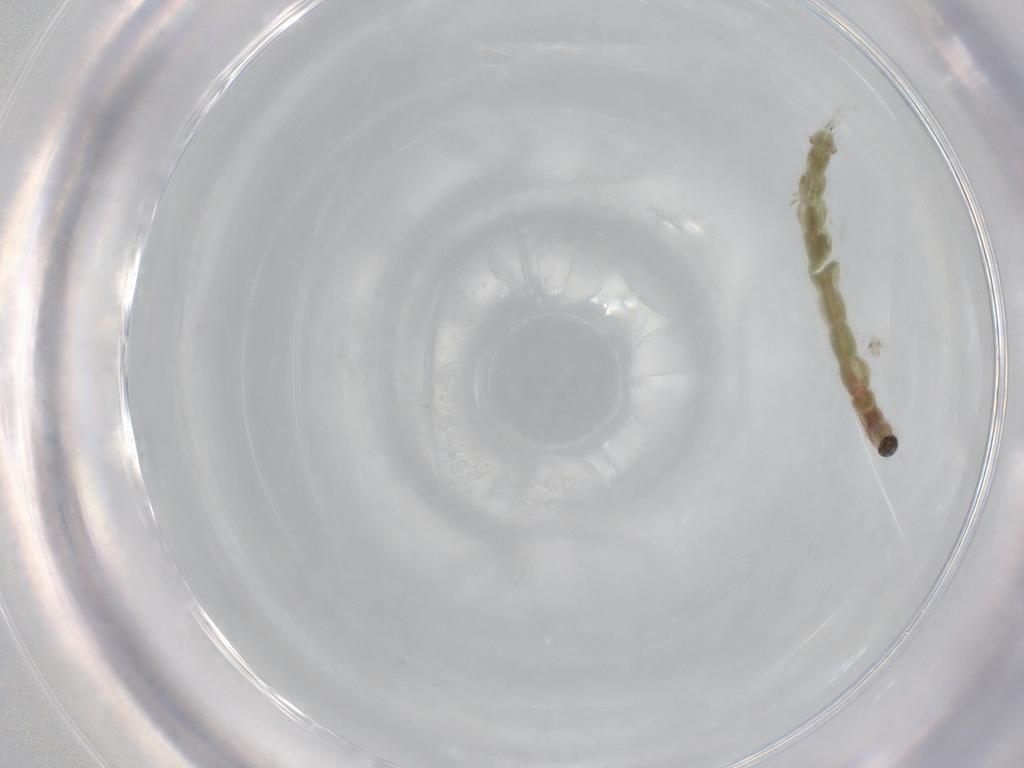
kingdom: Animalia
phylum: Arthropoda
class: Insecta
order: Diptera
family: Chironomidae
